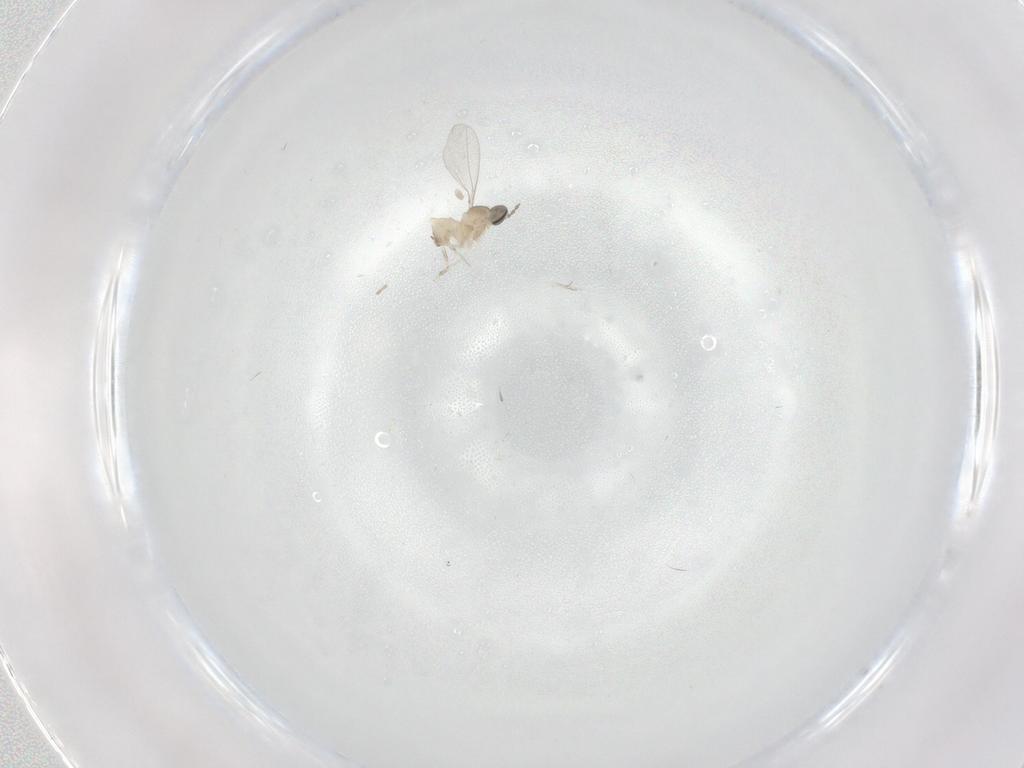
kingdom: Animalia
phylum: Arthropoda
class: Insecta
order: Diptera
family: Cecidomyiidae
